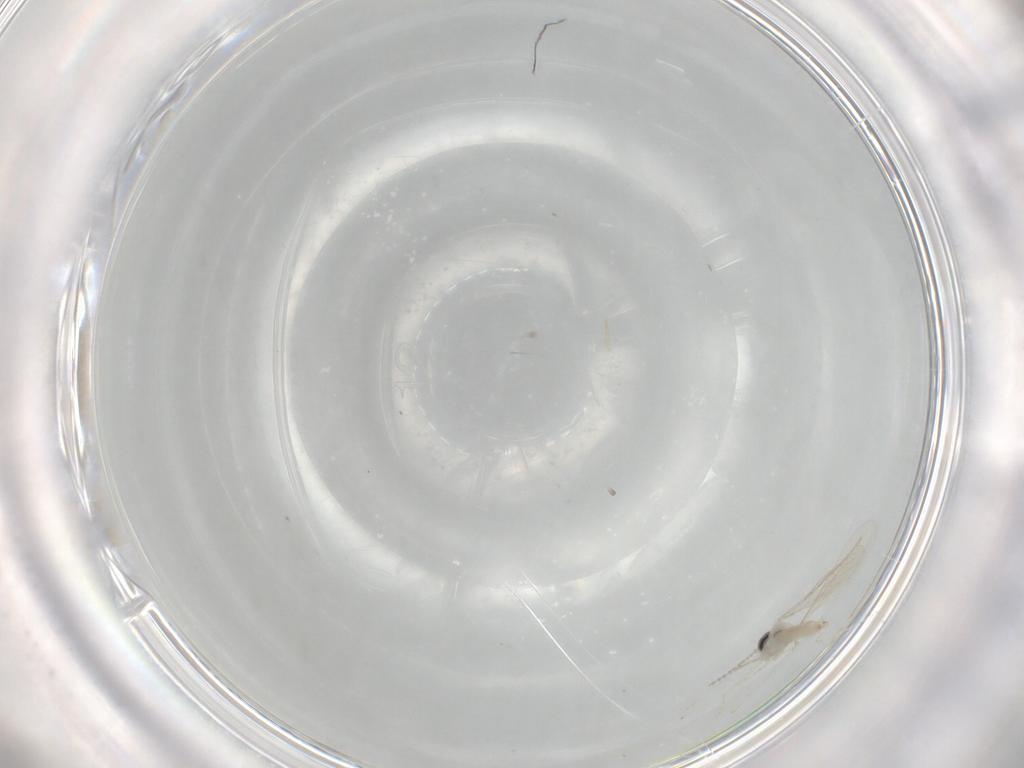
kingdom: Animalia
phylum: Arthropoda
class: Insecta
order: Diptera
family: Cecidomyiidae
